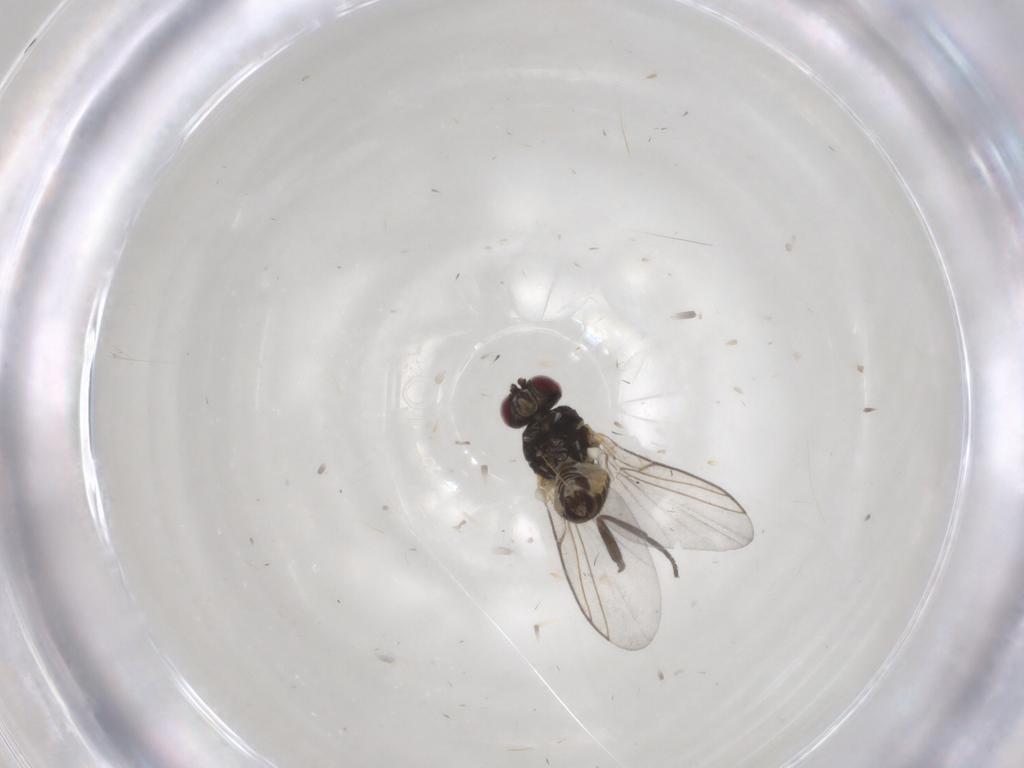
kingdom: Animalia
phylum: Arthropoda
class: Insecta
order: Diptera
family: Agromyzidae
